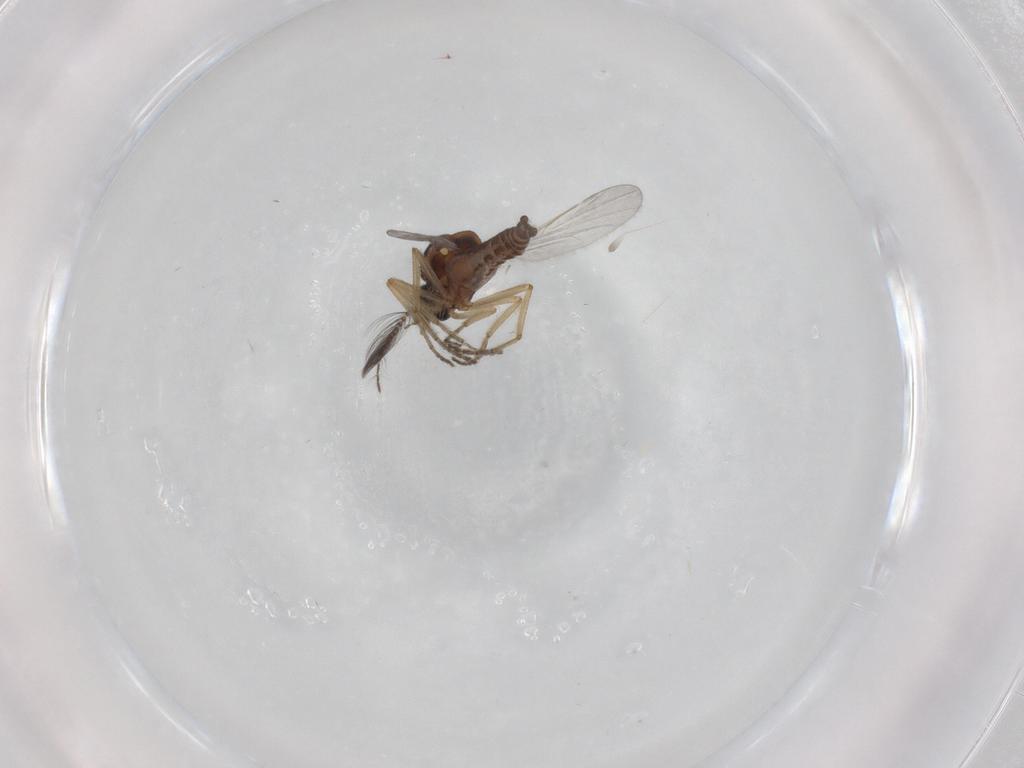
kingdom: Animalia
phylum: Arthropoda
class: Insecta
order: Diptera
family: Ceratopogonidae
